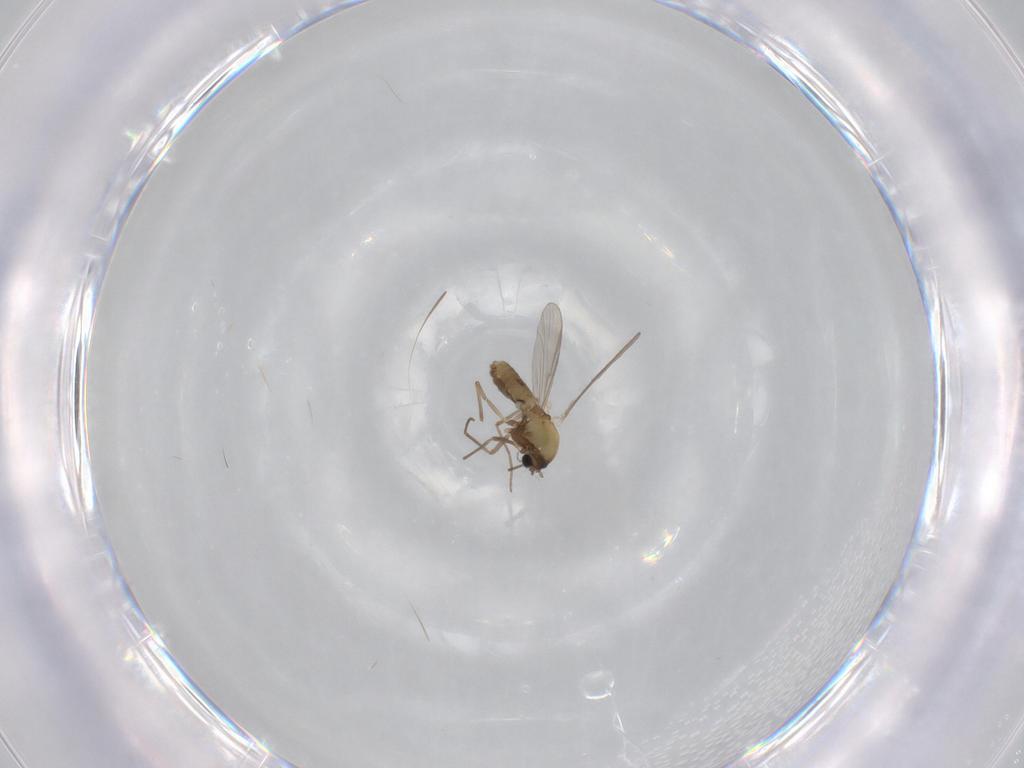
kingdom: Animalia
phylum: Arthropoda
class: Insecta
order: Diptera
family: Chironomidae
